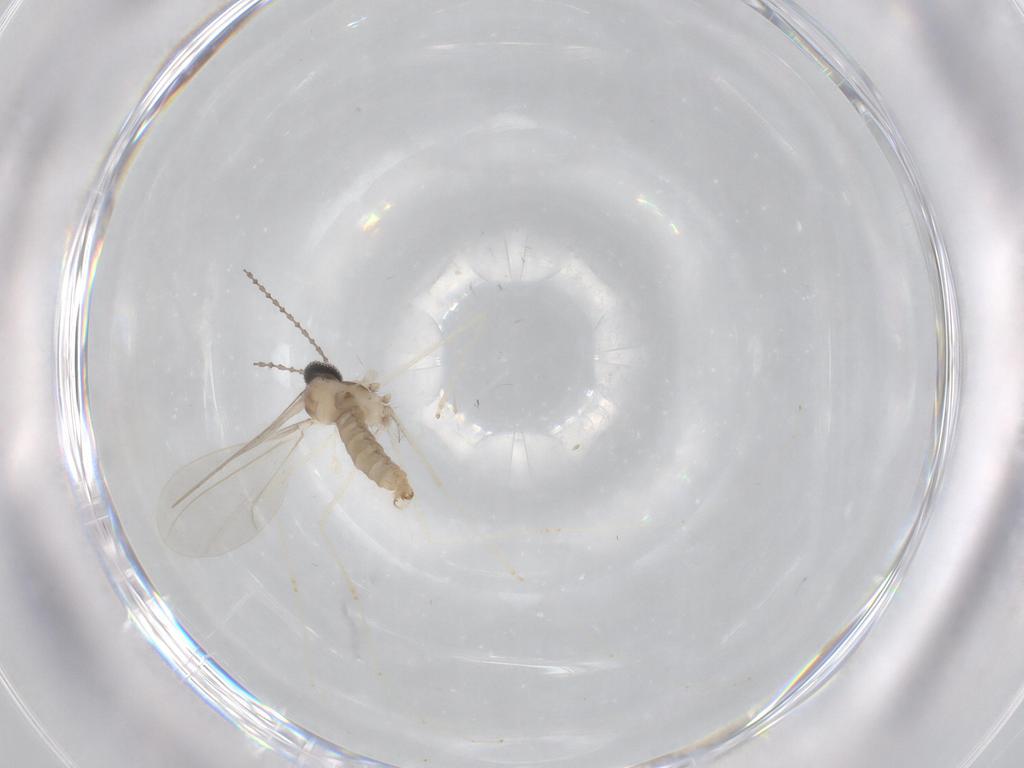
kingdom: Animalia
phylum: Arthropoda
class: Insecta
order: Diptera
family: Cecidomyiidae
